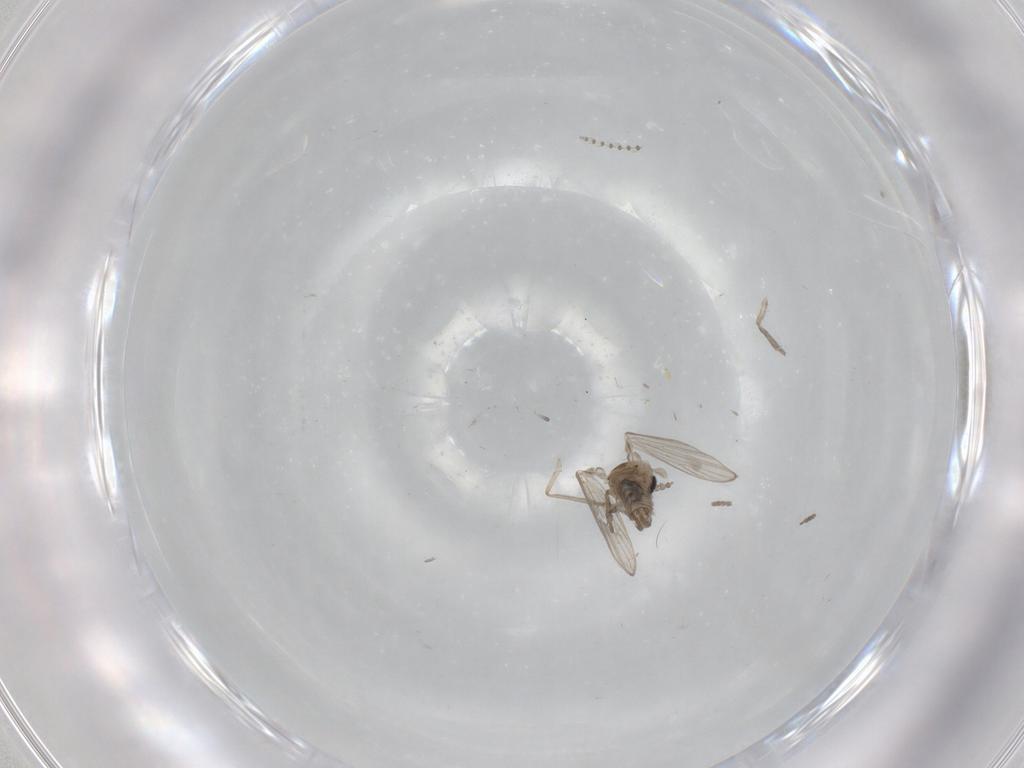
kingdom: Animalia
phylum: Arthropoda
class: Insecta
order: Diptera
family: Psychodidae
